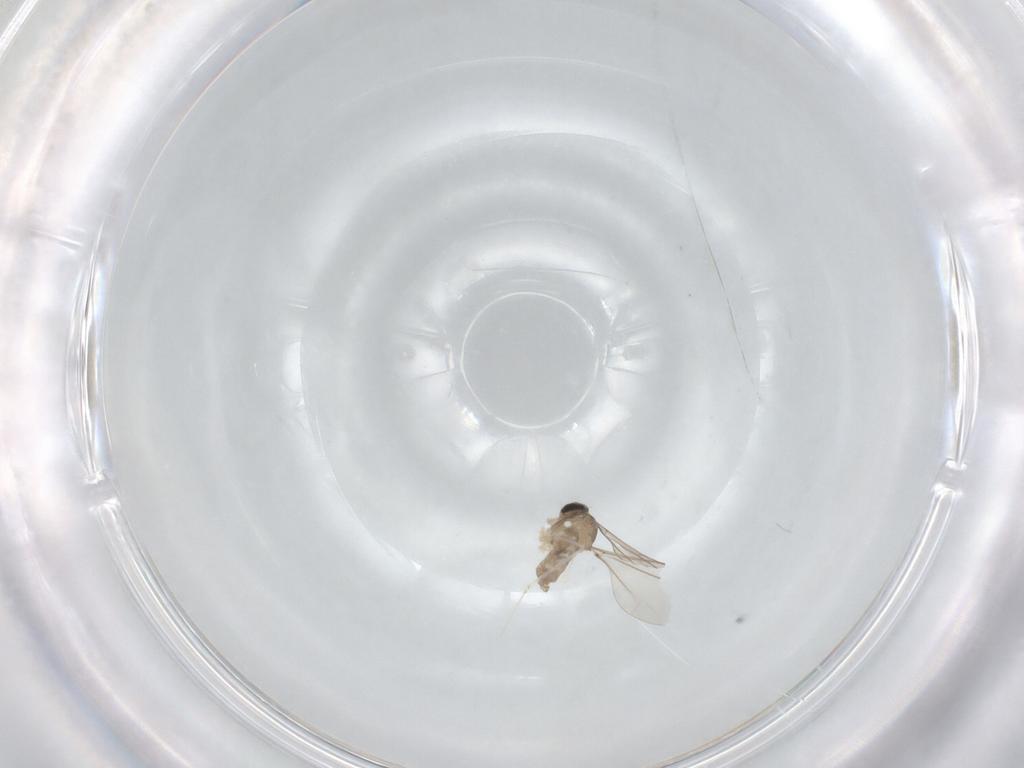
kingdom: Animalia
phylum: Arthropoda
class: Insecta
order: Diptera
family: Cecidomyiidae
